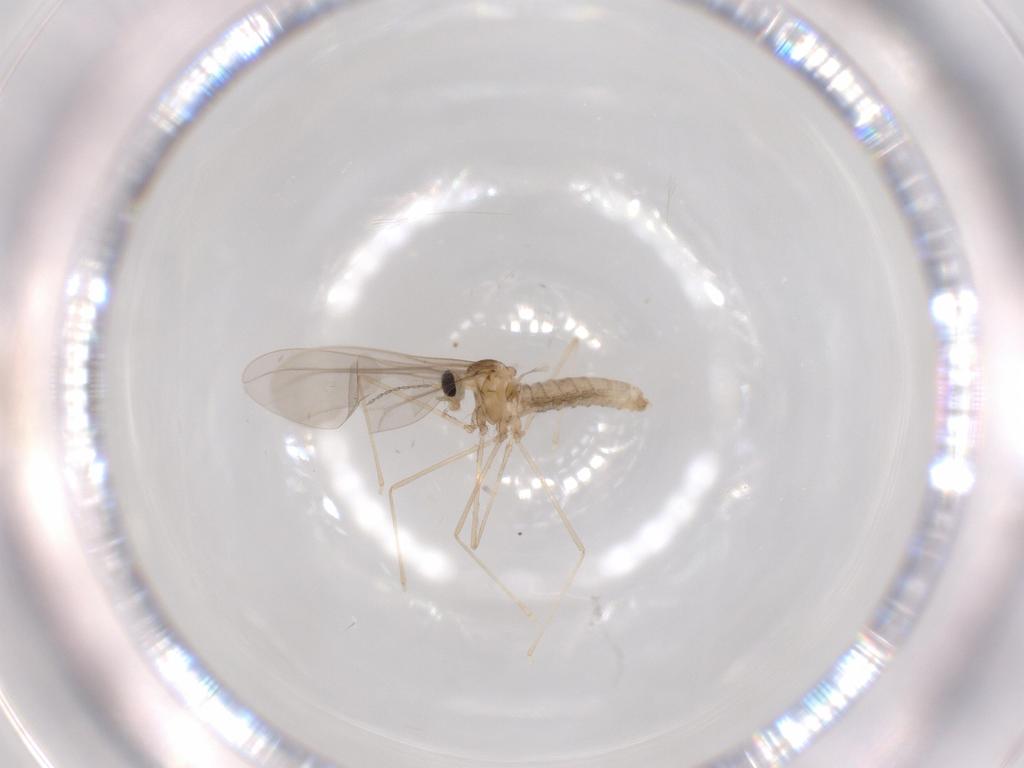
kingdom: Animalia
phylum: Arthropoda
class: Insecta
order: Diptera
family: Cecidomyiidae
